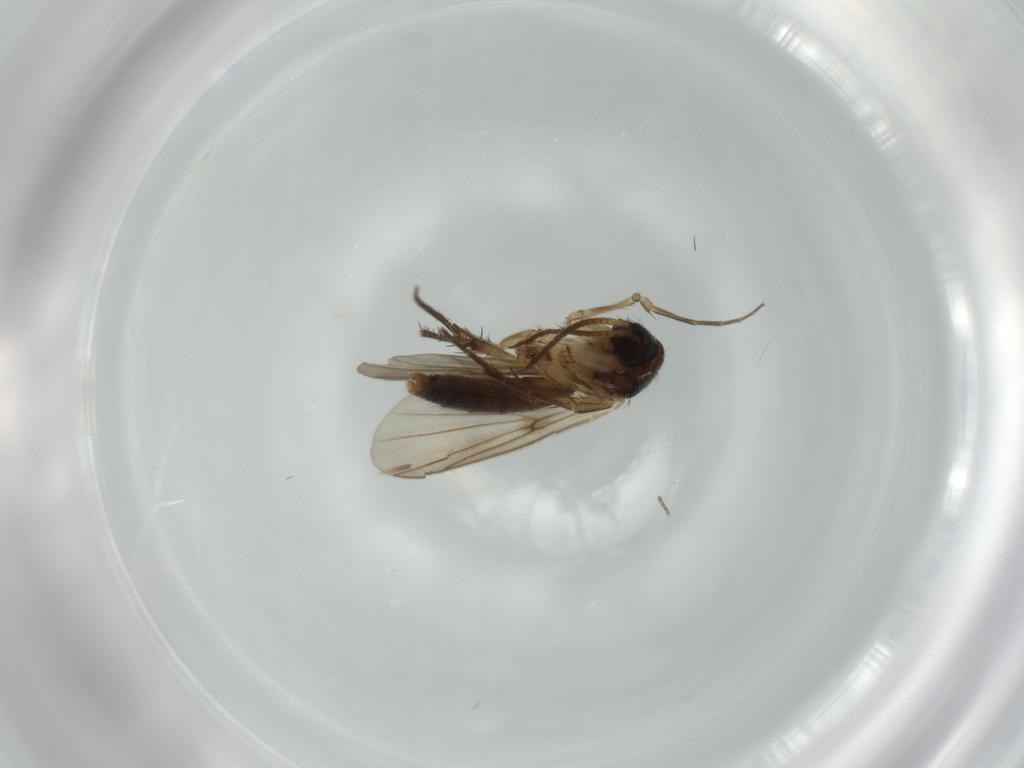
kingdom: Animalia
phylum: Arthropoda
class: Insecta
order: Diptera
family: Mycetophilidae
